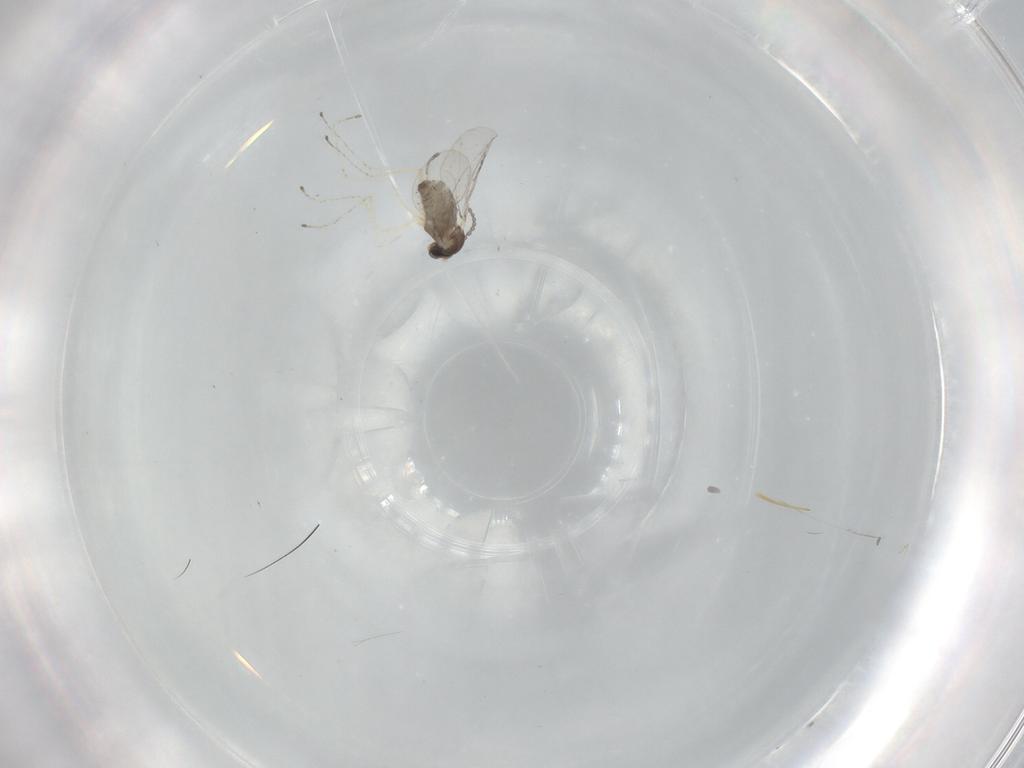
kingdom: Animalia
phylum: Arthropoda
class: Insecta
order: Diptera
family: Cecidomyiidae
